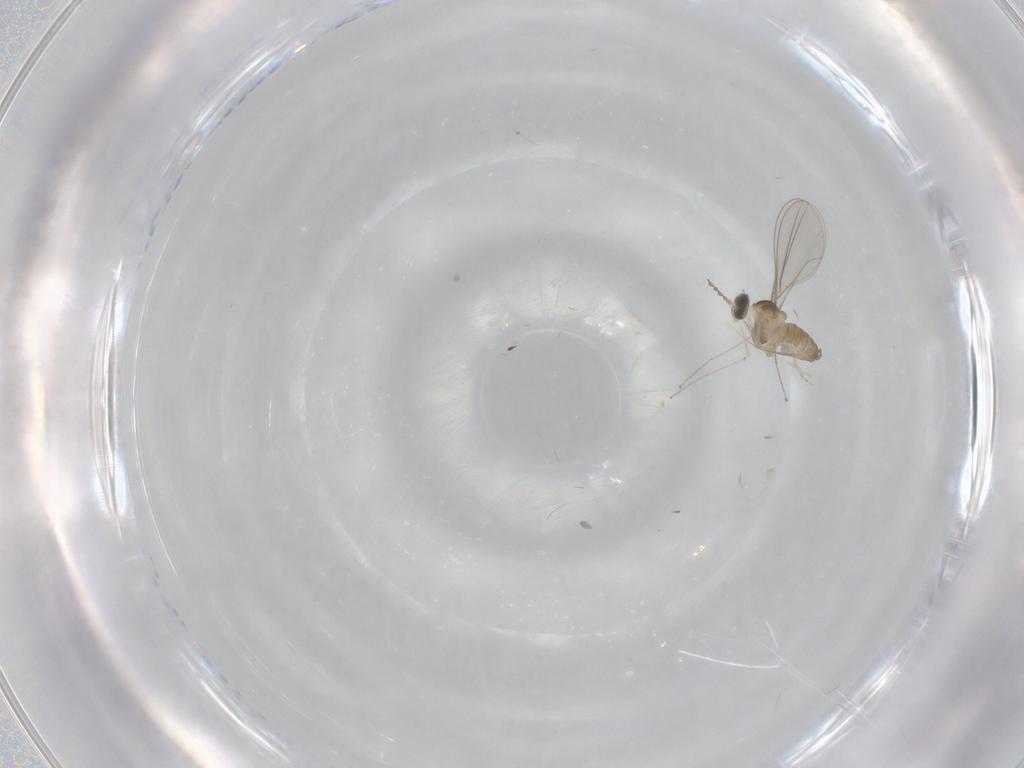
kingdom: Animalia
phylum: Arthropoda
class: Insecta
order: Diptera
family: Cecidomyiidae
